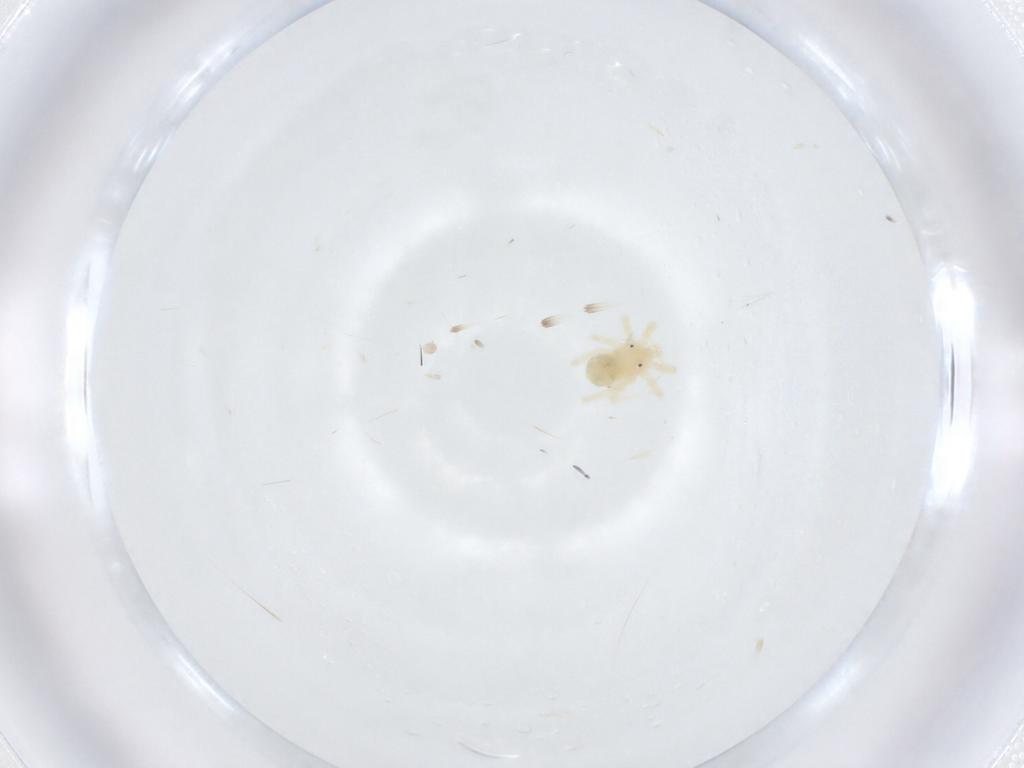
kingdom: Animalia
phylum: Arthropoda
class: Arachnida
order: Trombidiformes
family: Anystidae
